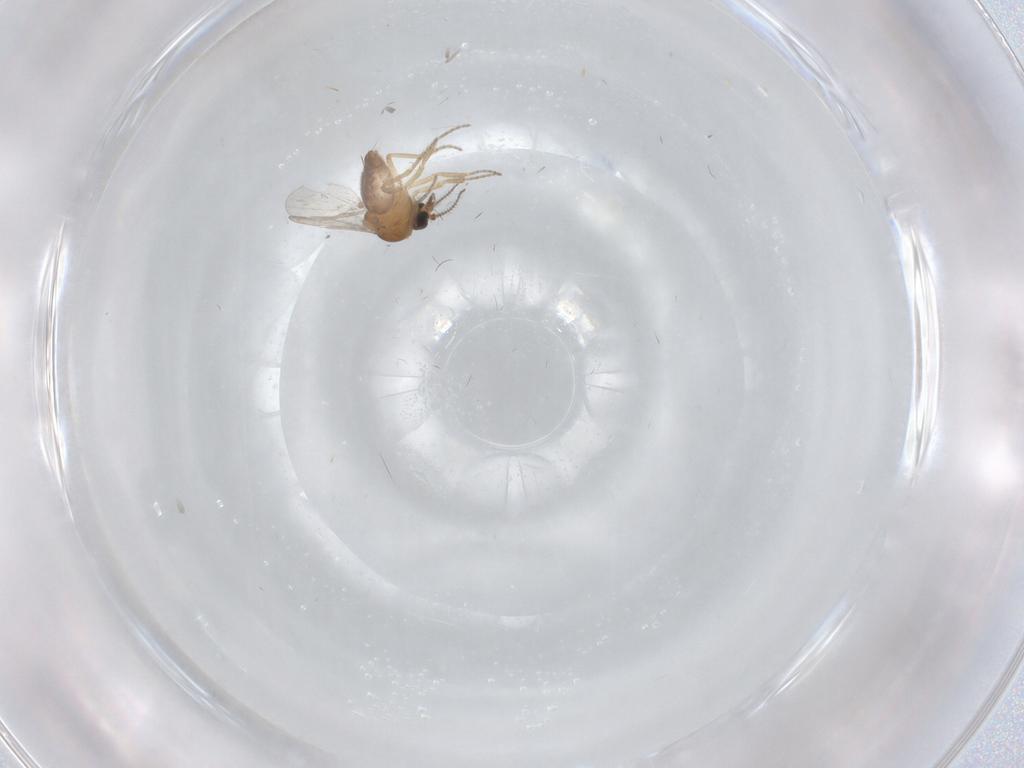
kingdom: Animalia
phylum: Arthropoda
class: Insecta
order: Diptera
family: Ceratopogonidae
